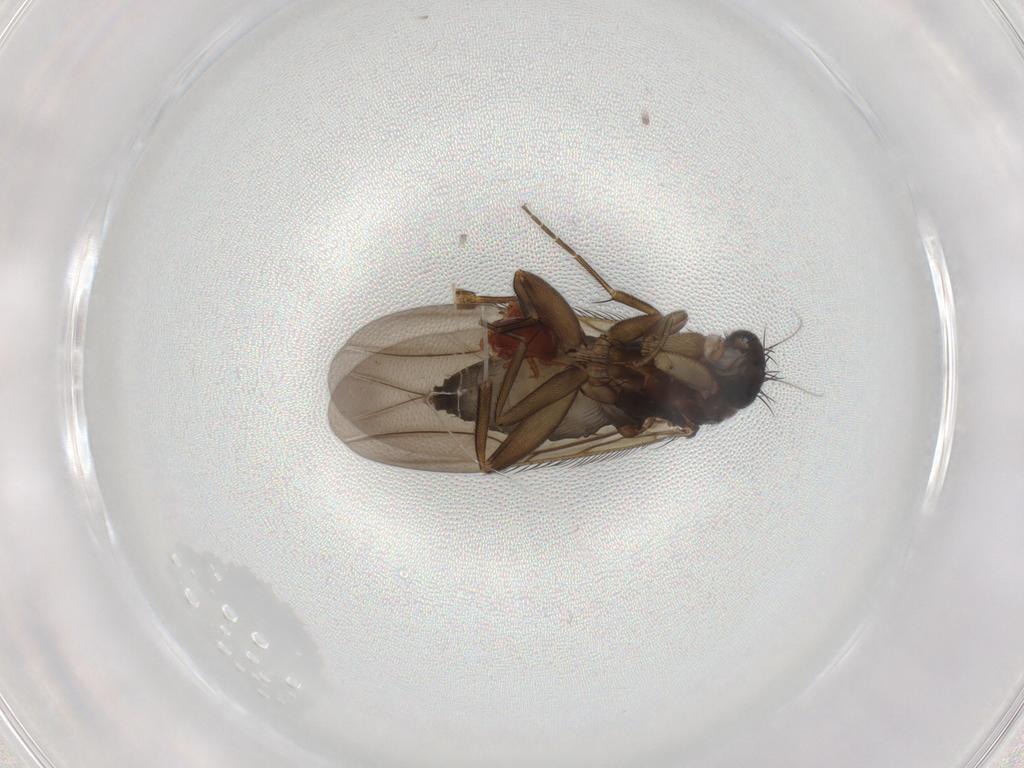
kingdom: Animalia
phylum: Arthropoda
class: Insecta
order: Diptera
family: Phoridae
